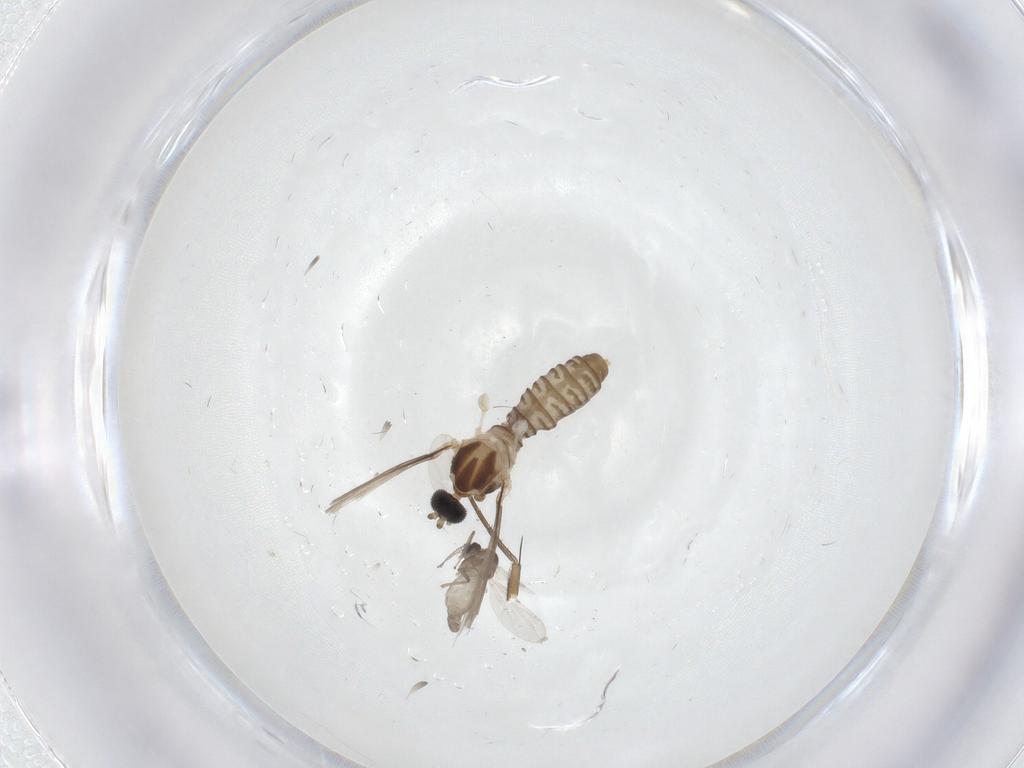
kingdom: Animalia
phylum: Arthropoda
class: Insecta
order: Diptera
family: Cecidomyiidae
